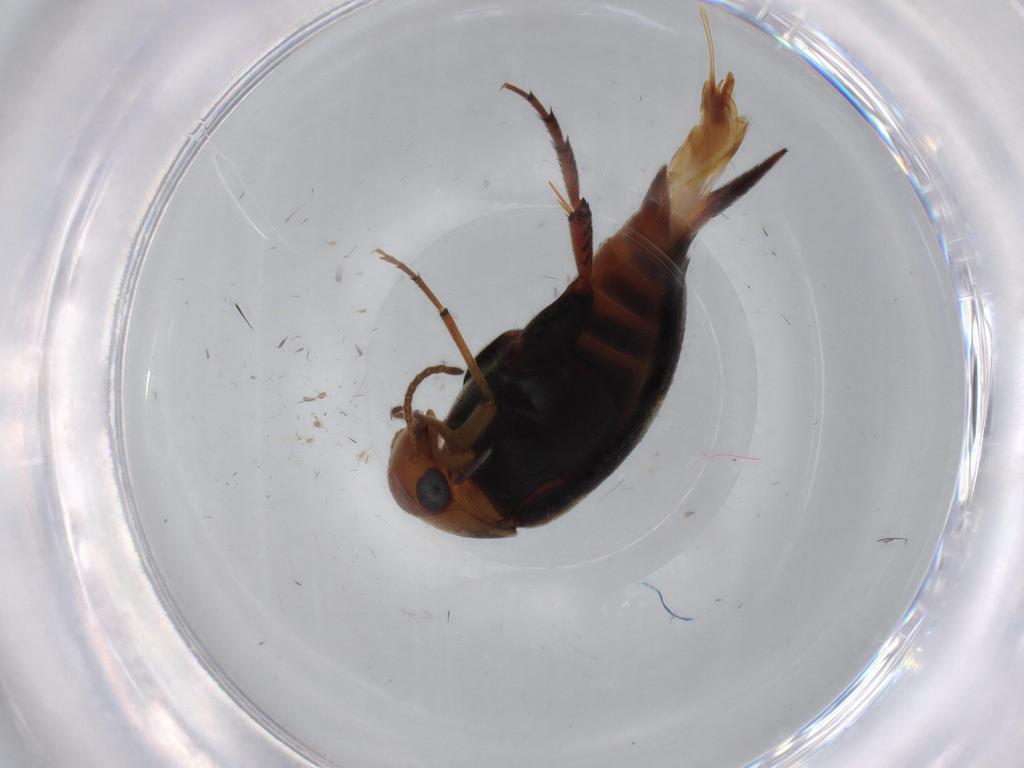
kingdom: Animalia
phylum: Arthropoda
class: Insecta
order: Coleoptera
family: Mordellidae
